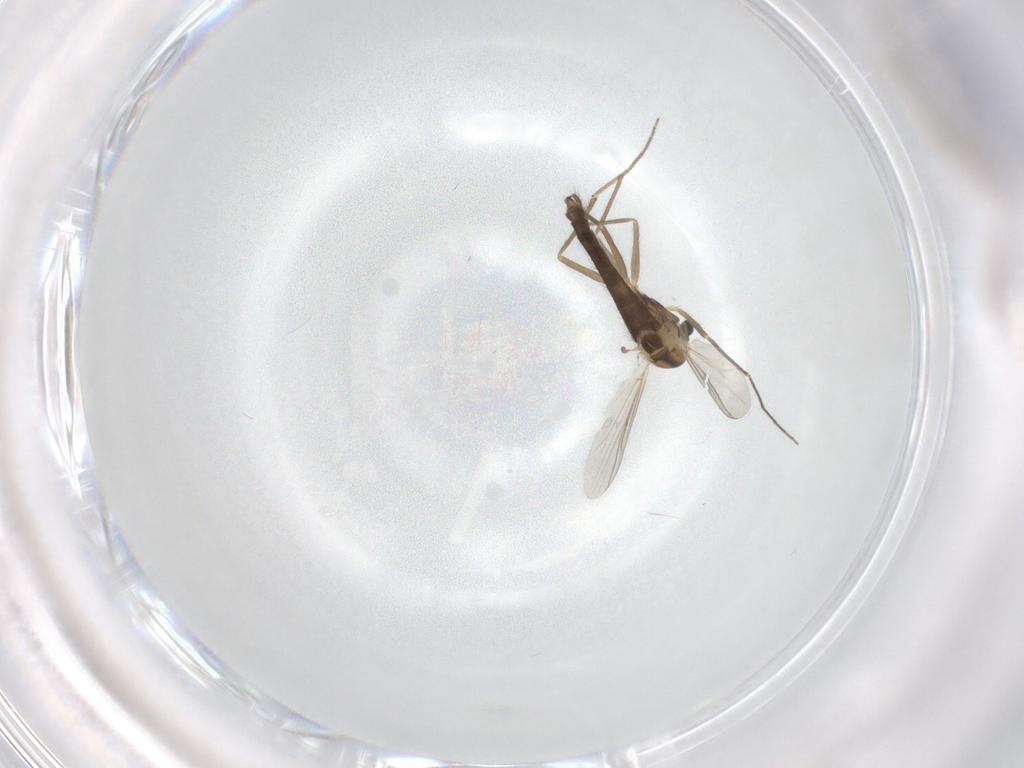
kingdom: Animalia
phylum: Arthropoda
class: Insecta
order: Diptera
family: Chironomidae
